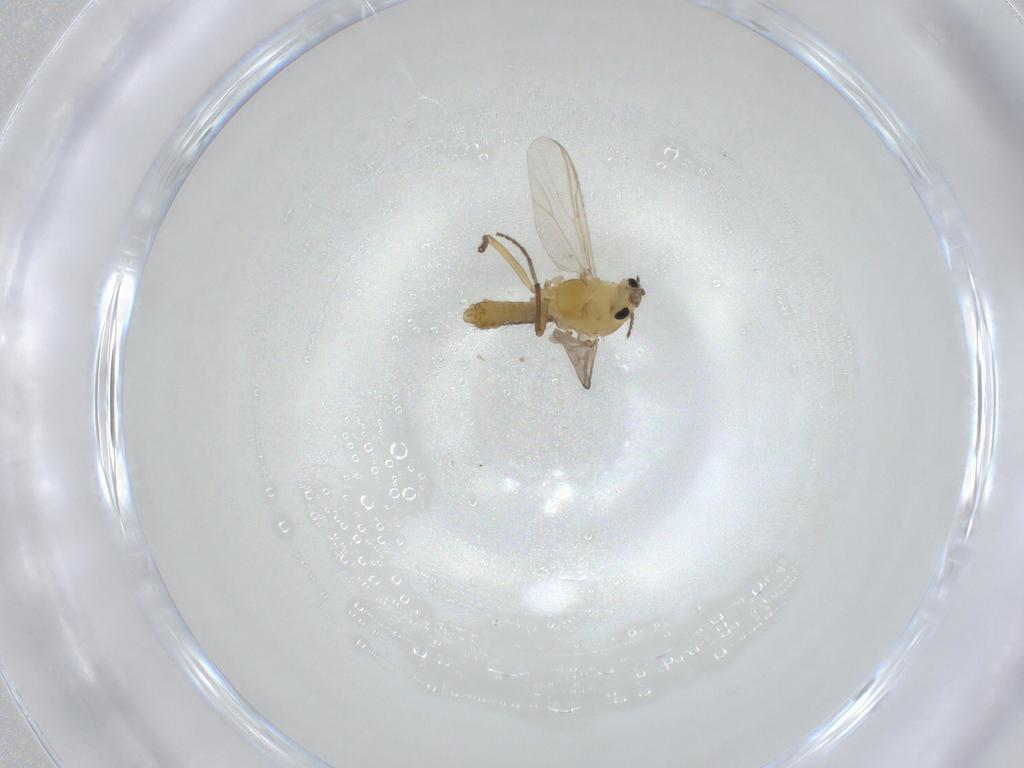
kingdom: Animalia
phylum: Arthropoda
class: Insecta
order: Diptera
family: Chironomidae
